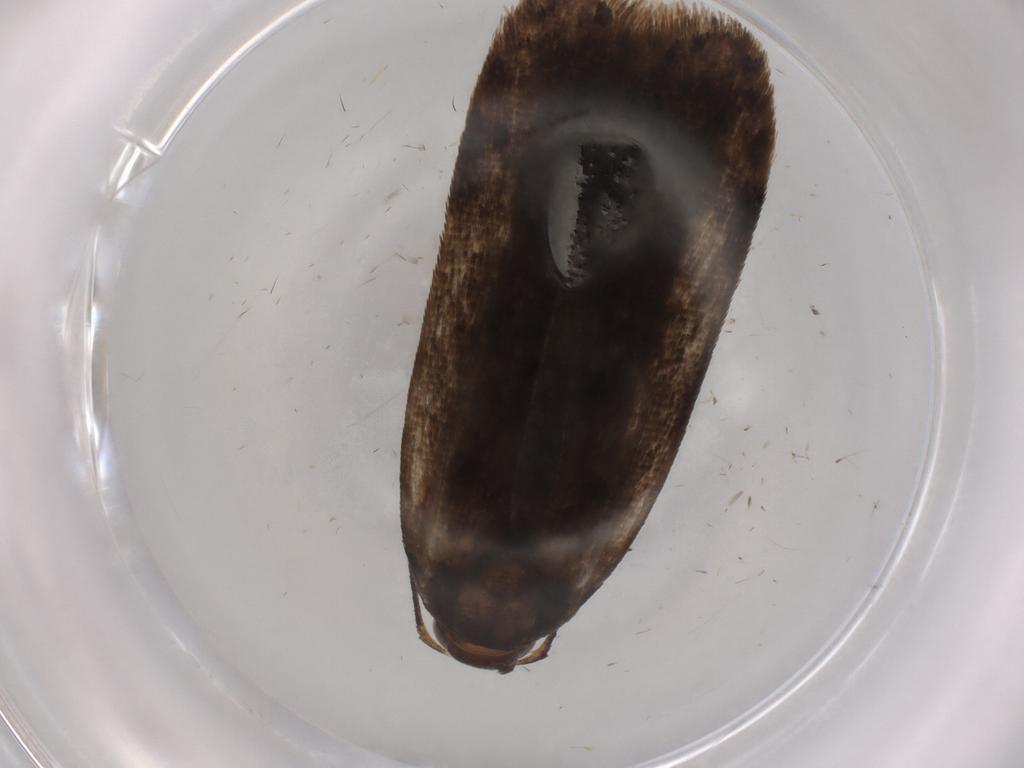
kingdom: Animalia
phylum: Arthropoda
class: Insecta
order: Lepidoptera
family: Gelechiidae
